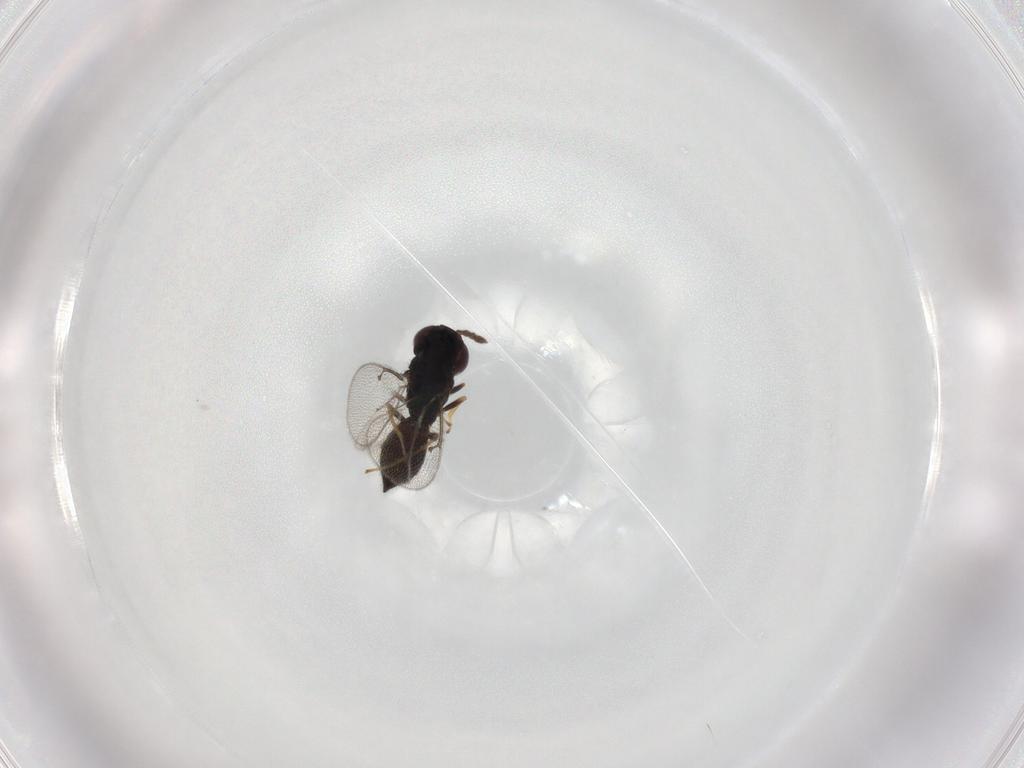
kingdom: Animalia
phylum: Arthropoda
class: Insecta
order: Hymenoptera
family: Eulophidae
